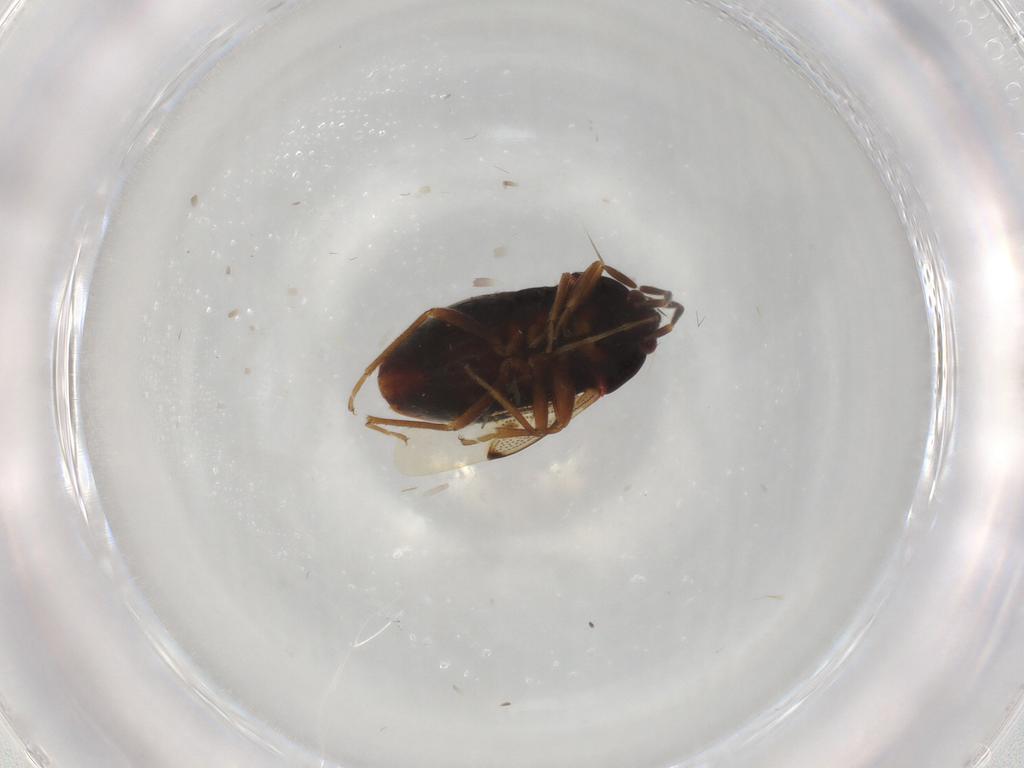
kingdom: Animalia
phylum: Arthropoda
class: Insecta
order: Hemiptera
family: Rhyparochromidae
